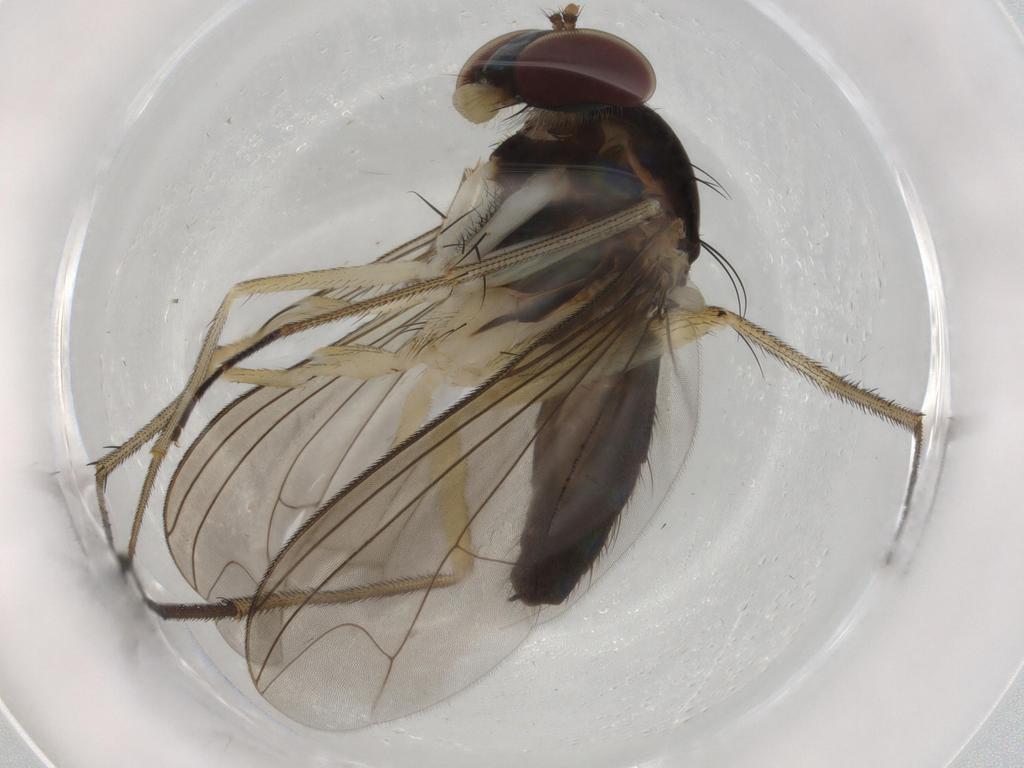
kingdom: Animalia
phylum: Arthropoda
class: Insecta
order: Diptera
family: Dolichopodidae
